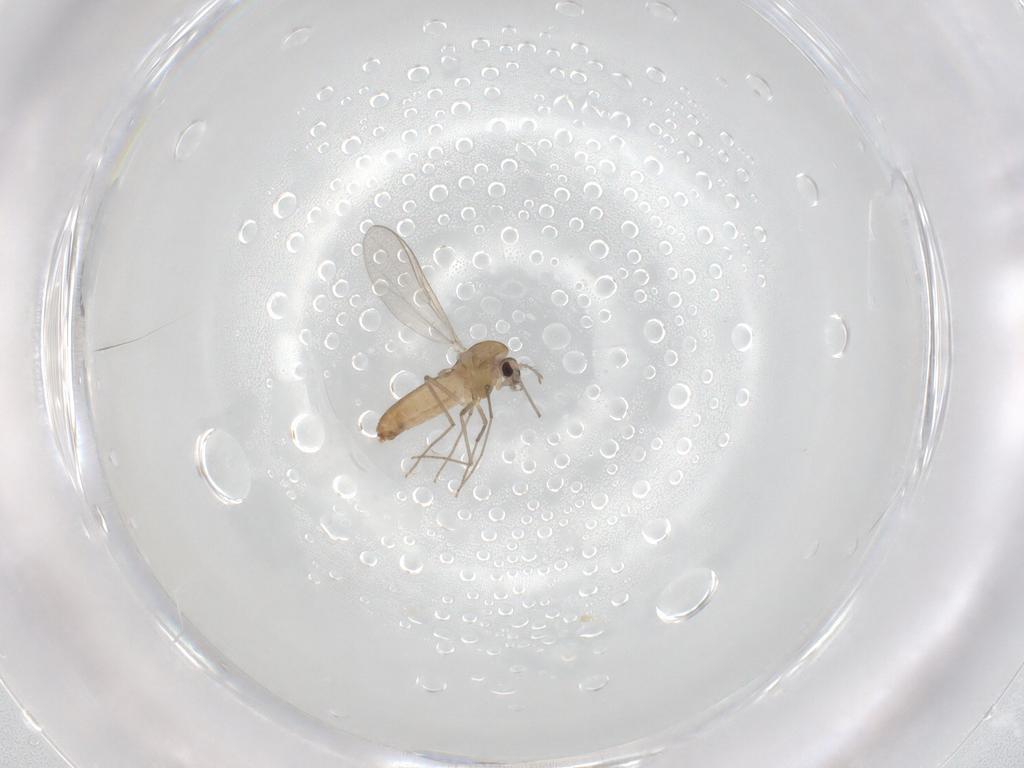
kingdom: Animalia
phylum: Arthropoda
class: Insecta
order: Diptera
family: Chironomidae
